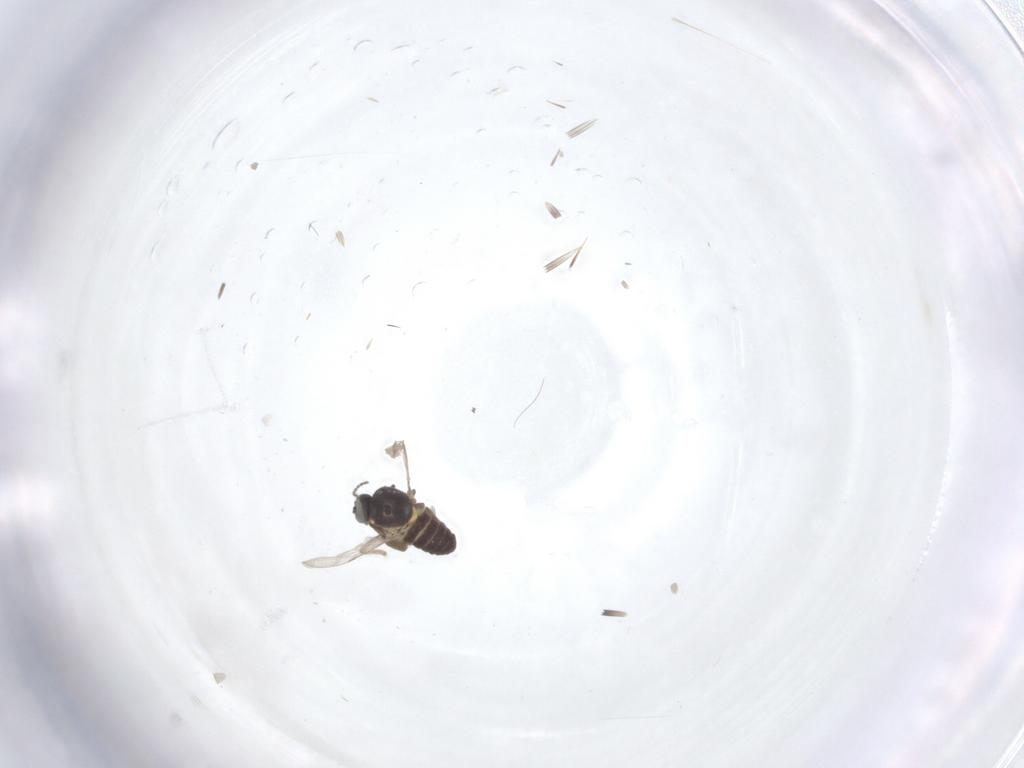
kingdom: Animalia
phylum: Arthropoda
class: Insecta
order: Diptera
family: Ceratopogonidae
